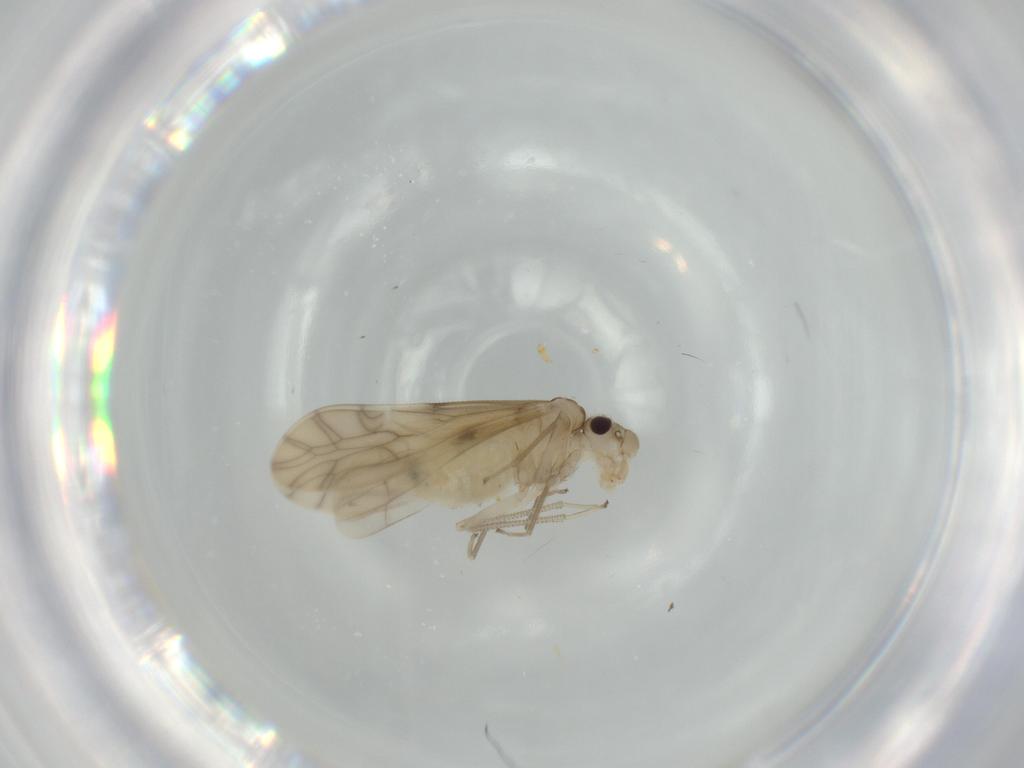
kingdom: Animalia
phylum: Arthropoda
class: Insecta
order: Psocodea
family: Caeciliusidae
